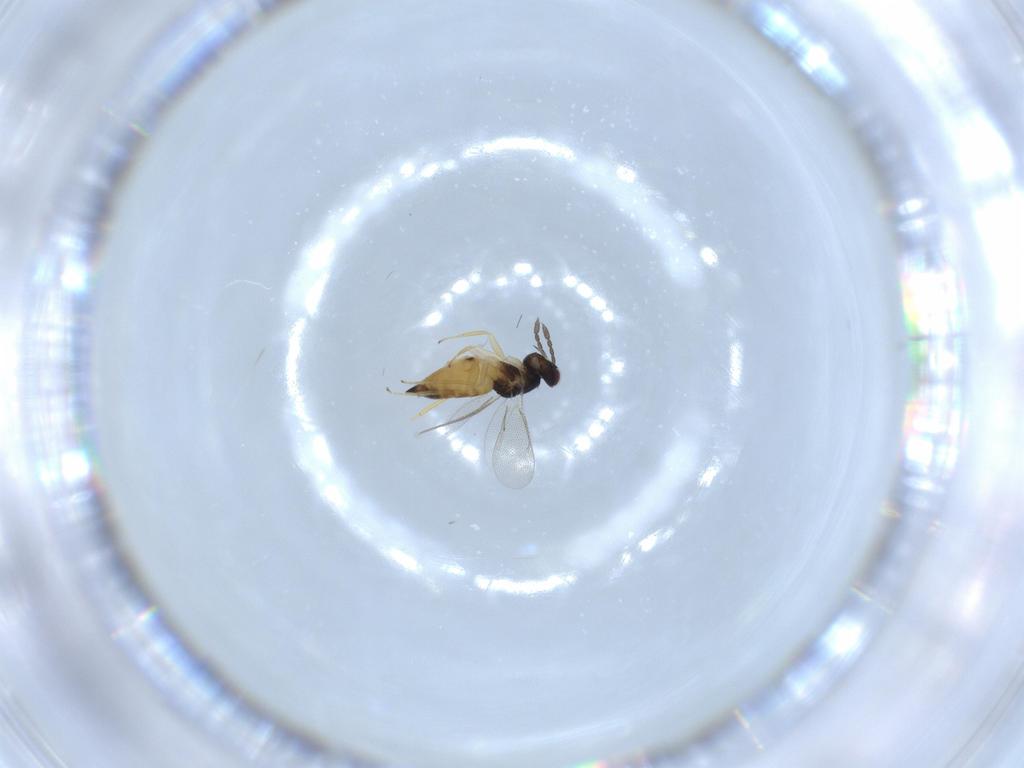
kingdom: Animalia
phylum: Arthropoda
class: Insecta
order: Hymenoptera
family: Eulophidae
